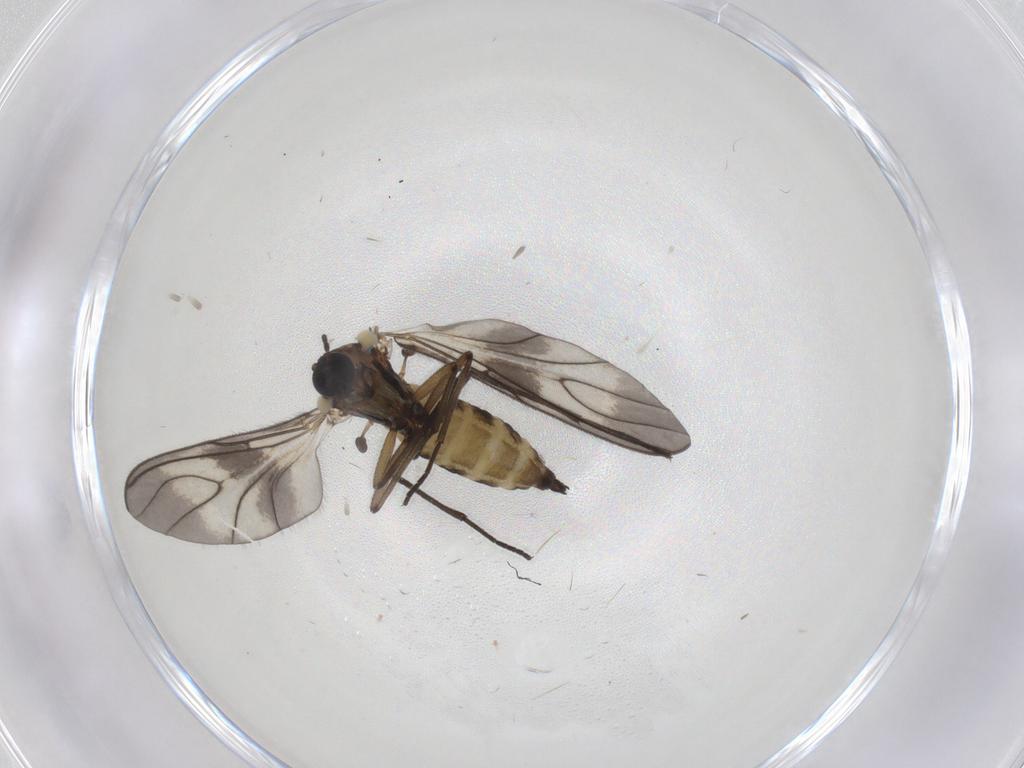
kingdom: Animalia
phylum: Arthropoda
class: Insecta
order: Diptera
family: Sciaridae
